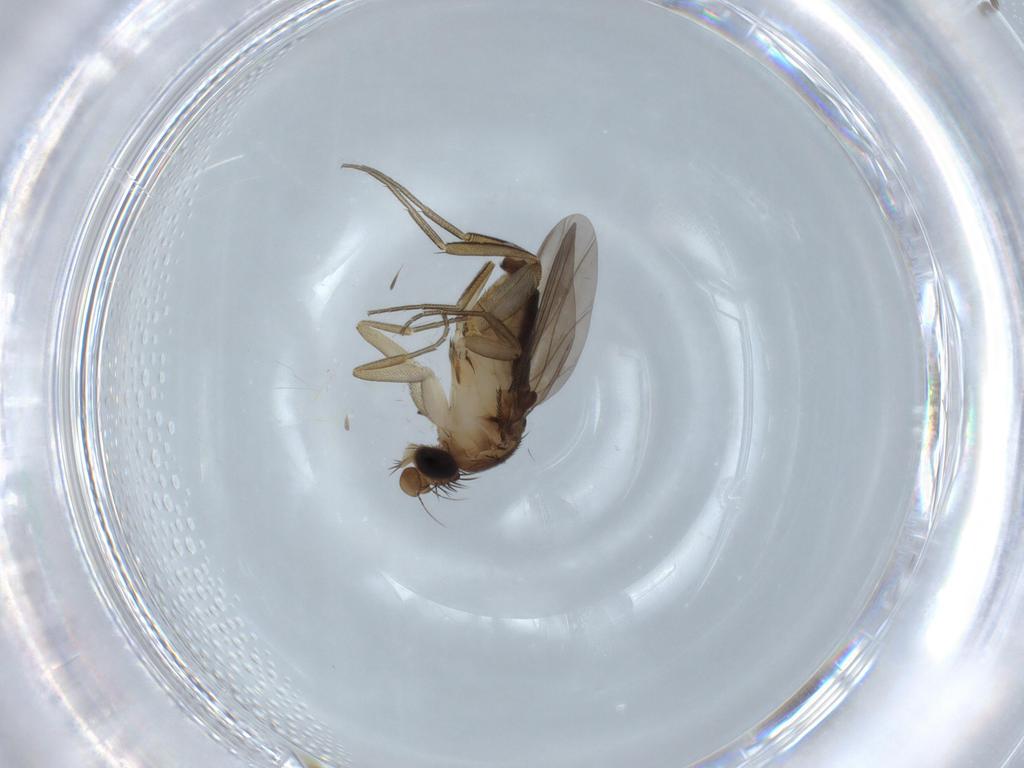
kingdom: Animalia
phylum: Arthropoda
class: Insecta
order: Diptera
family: Phoridae
